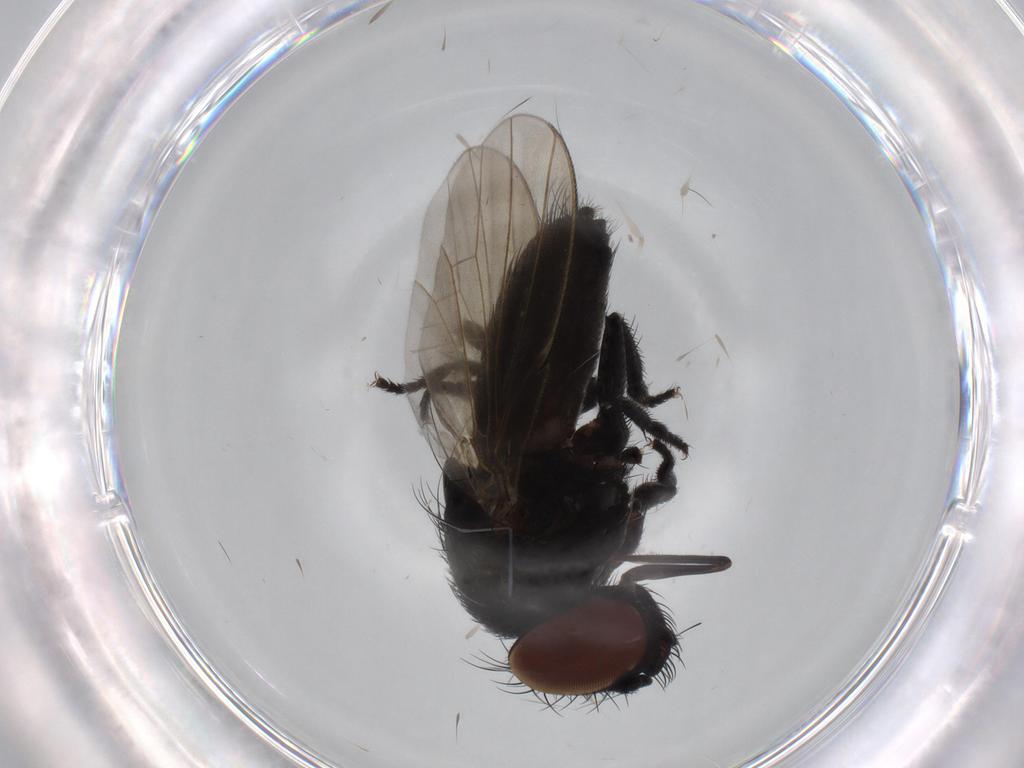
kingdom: Animalia
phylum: Arthropoda
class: Insecta
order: Diptera
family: Milichiidae
